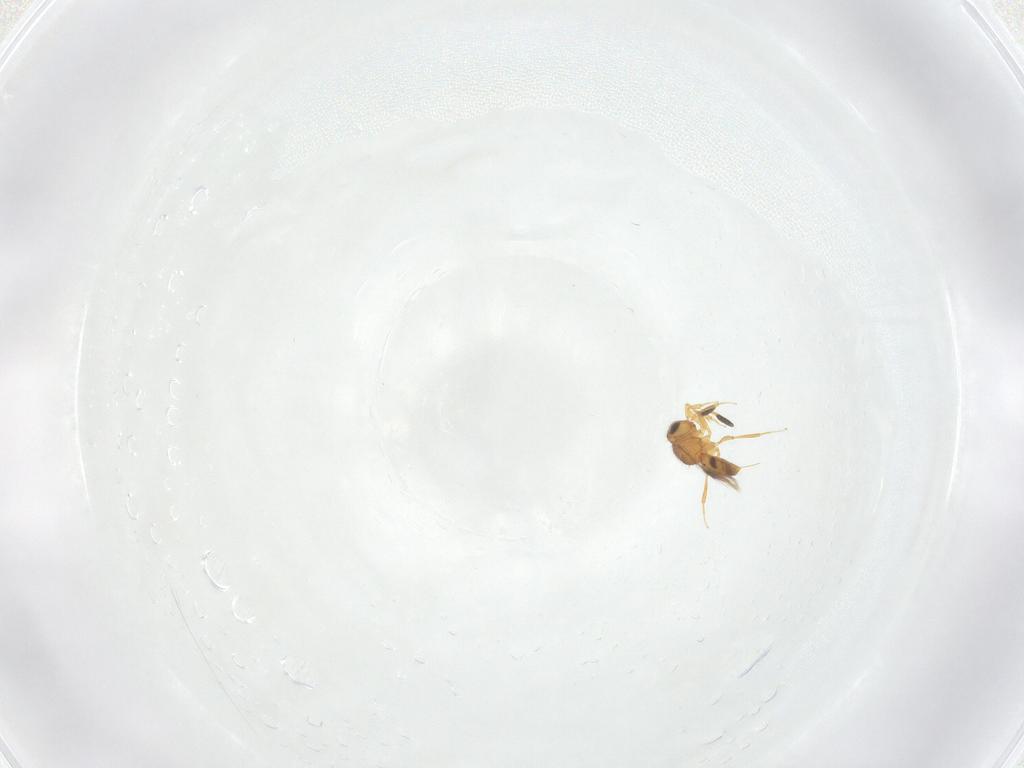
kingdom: Animalia
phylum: Arthropoda
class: Insecta
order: Hymenoptera
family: Scelionidae
